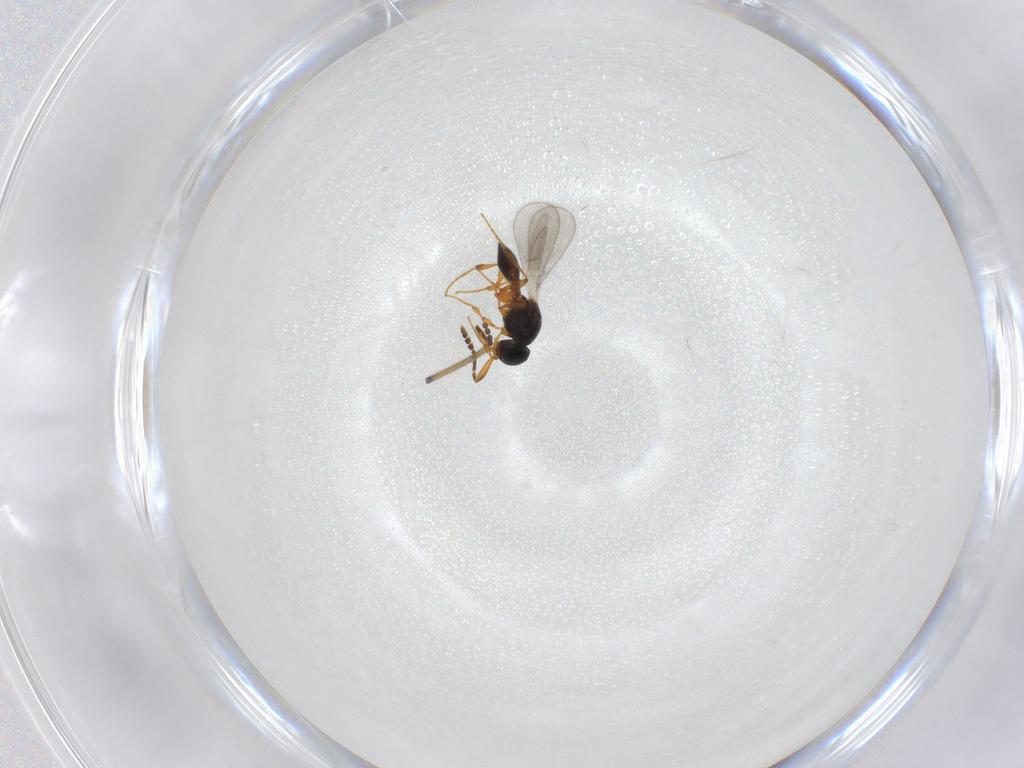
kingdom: Animalia
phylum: Arthropoda
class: Insecta
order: Hymenoptera
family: Platygastridae
